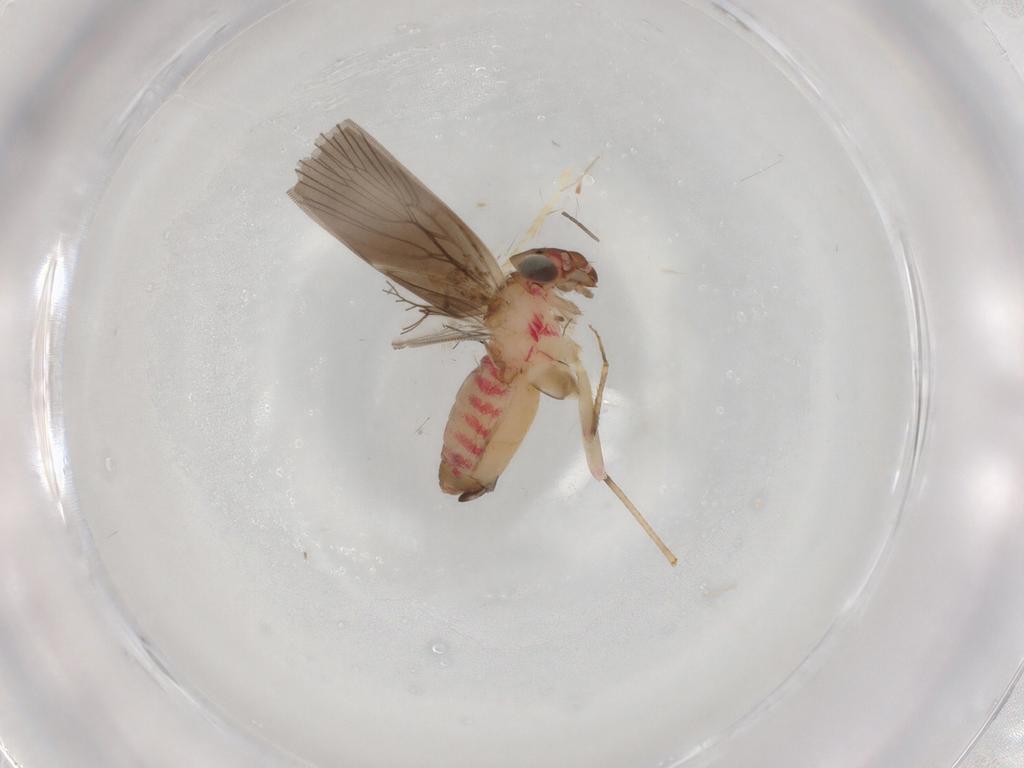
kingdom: Animalia
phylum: Arthropoda
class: Insecta
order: Psocodea
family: Lepidopsocidae
